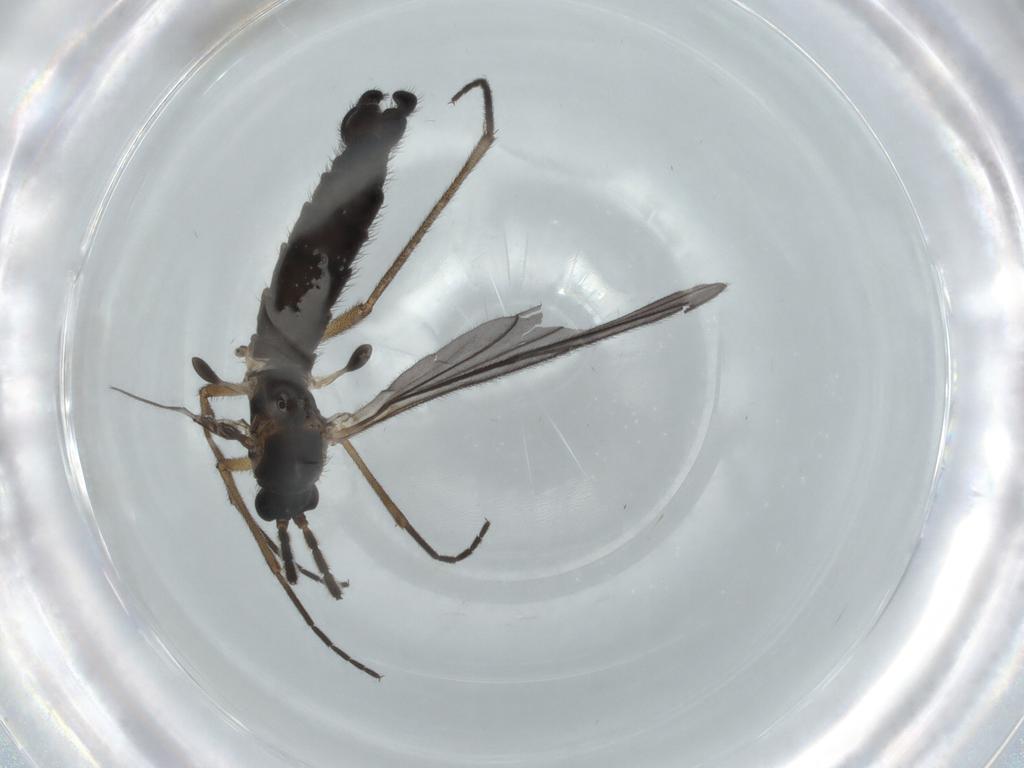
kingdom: Animalia
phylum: Arthropoda
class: Insecta
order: Diptera
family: Sciaridae
